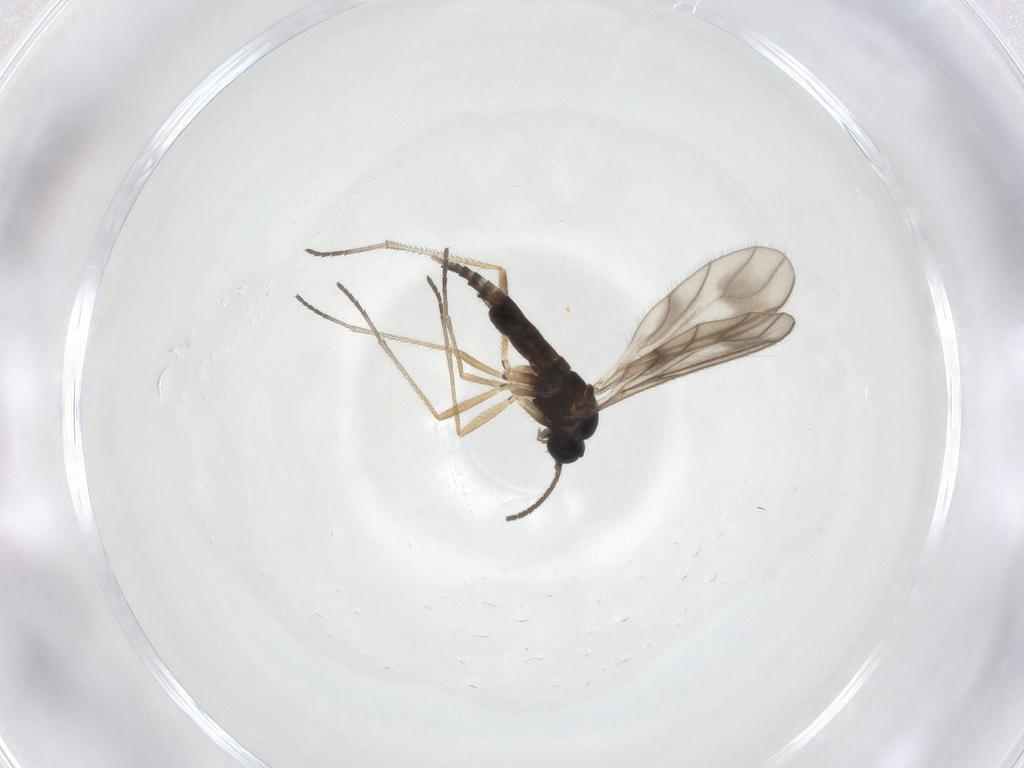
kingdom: Animalia
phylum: Arthropoda
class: Insecta
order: Diptera
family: Sciaridae
